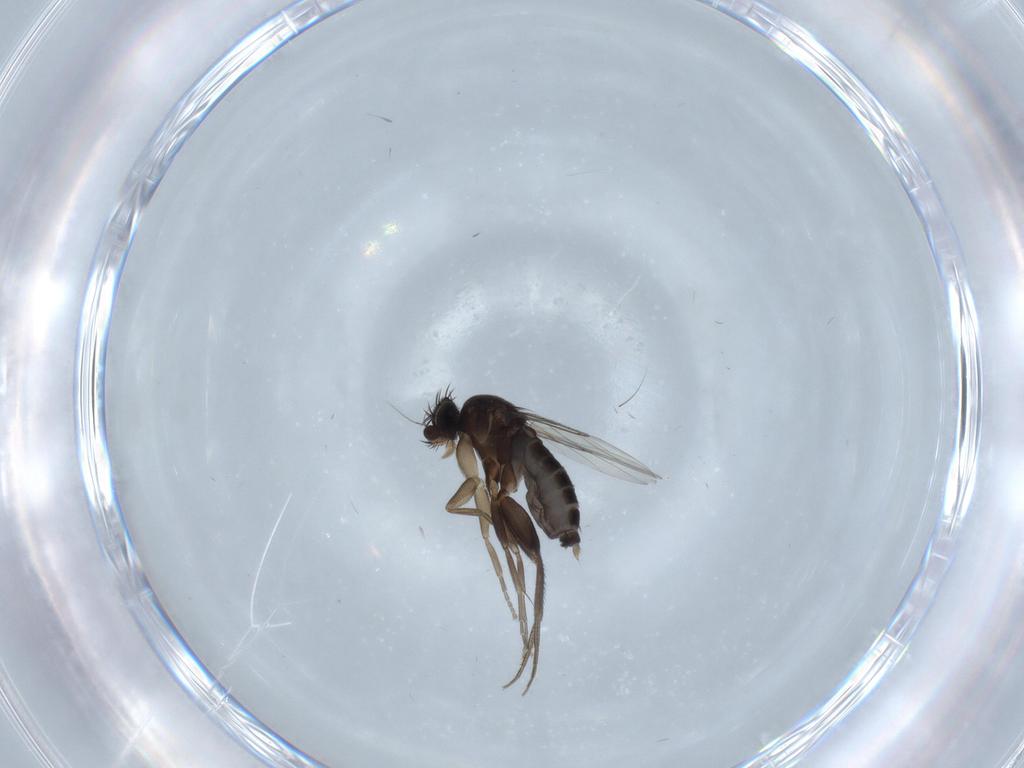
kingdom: Animalia
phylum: Arthropoda
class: Insecta
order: Diptera
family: Phoridae
